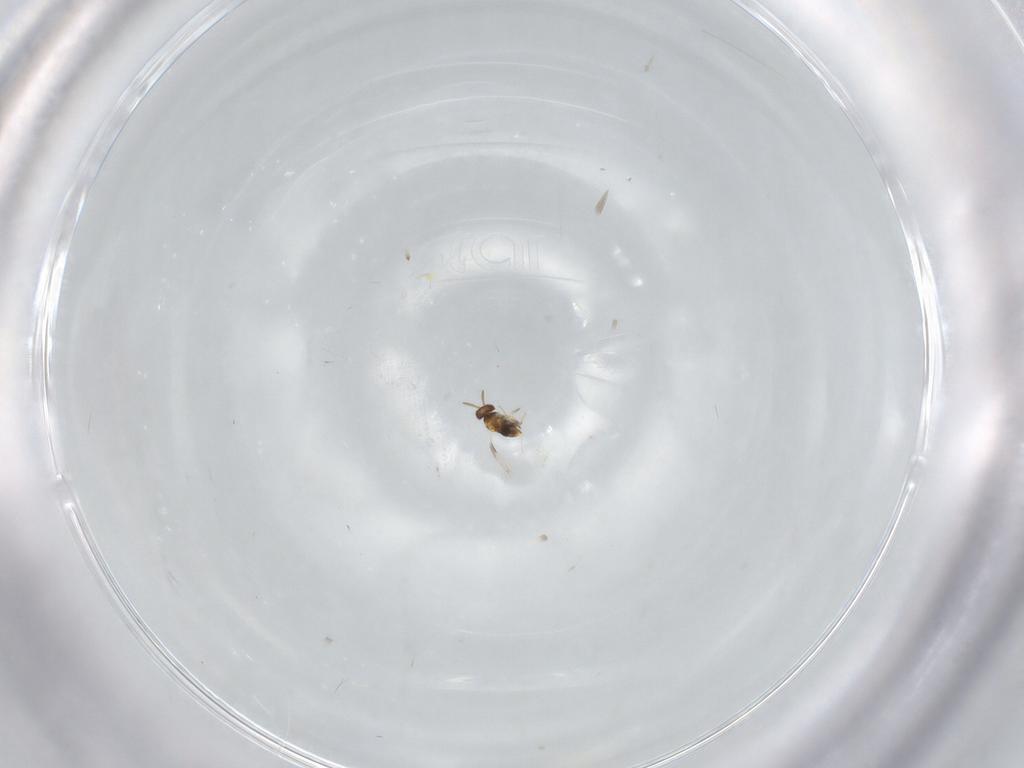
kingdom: Animalia
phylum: Arthropoda
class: Insecta
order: Hymenoptera
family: Aphelinidae
